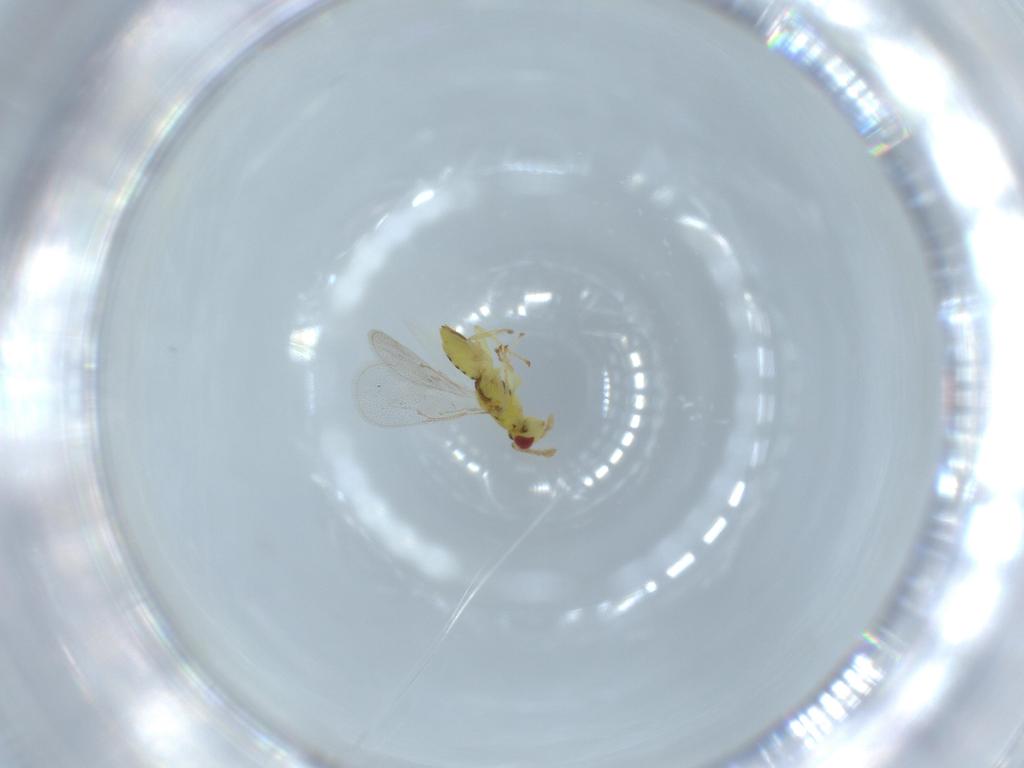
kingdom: Animalia
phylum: Arthropoda
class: Insecta
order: Hymenoptera
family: Eulophidae
